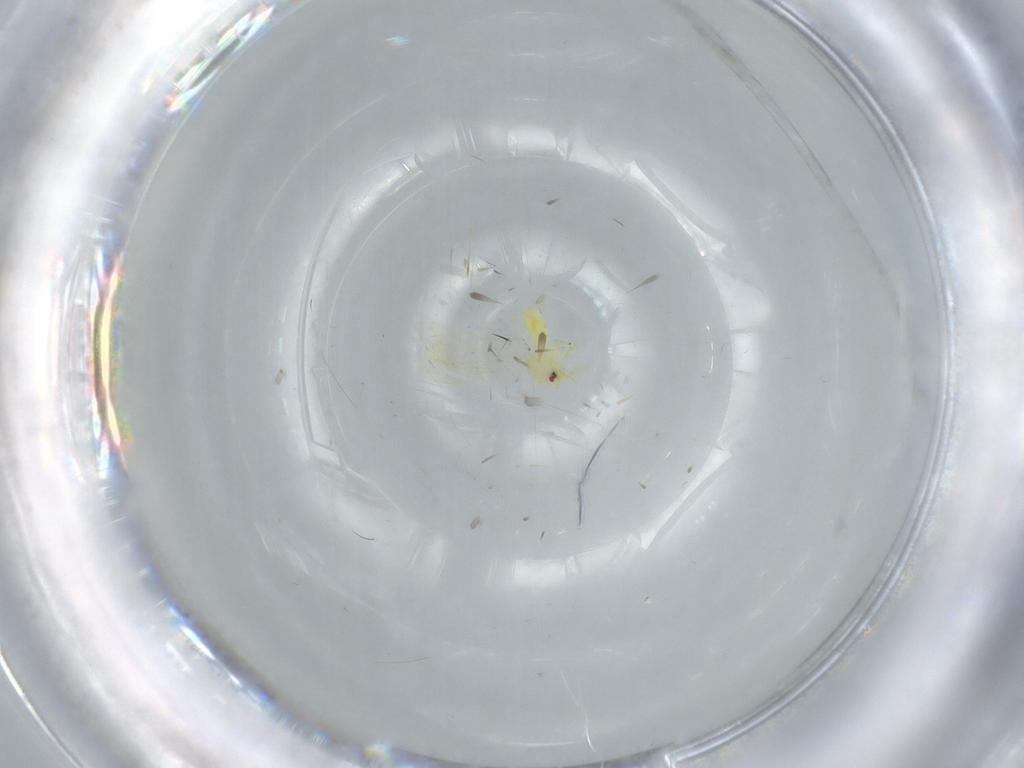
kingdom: Animalia
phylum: Arthropoda
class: Insecta
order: Hemiptera
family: Aleyrodidae
